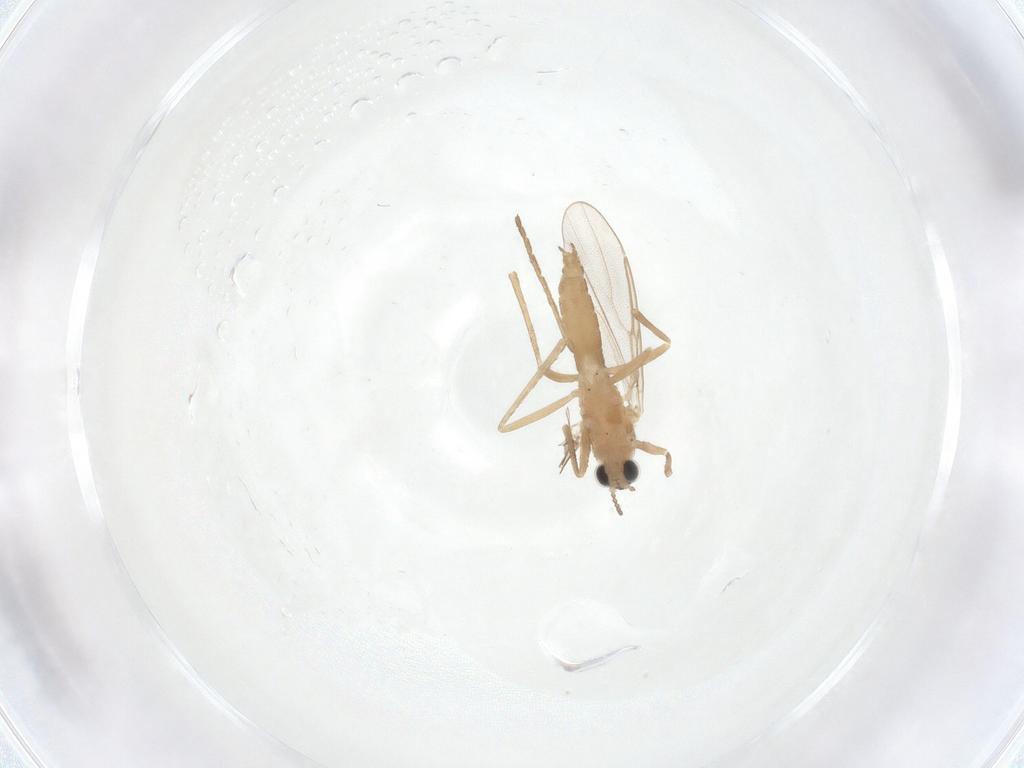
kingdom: Animalia
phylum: Arthropoda
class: Insecta
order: Diptera
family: Cecidomyiidae
